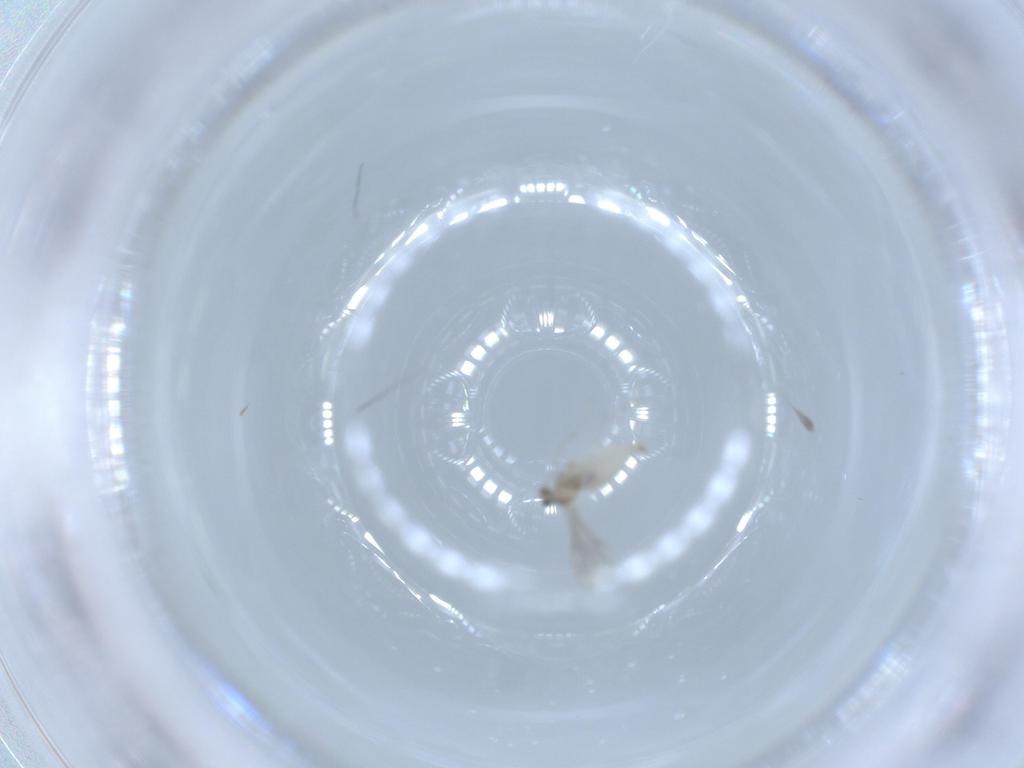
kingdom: Animalia
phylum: Arthropoda
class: Insecta
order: Diptera
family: Cecidomyiidae
